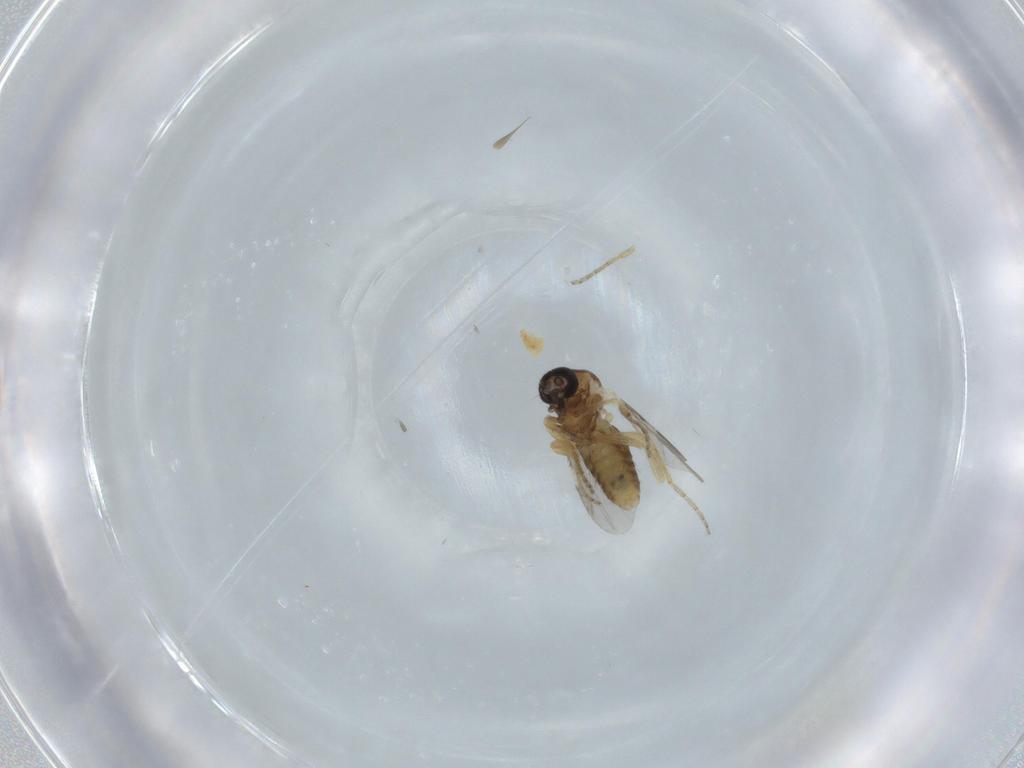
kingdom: Animalia
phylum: Arthropoda
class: Insecta
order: Diptera
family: Ceratopogonidae
